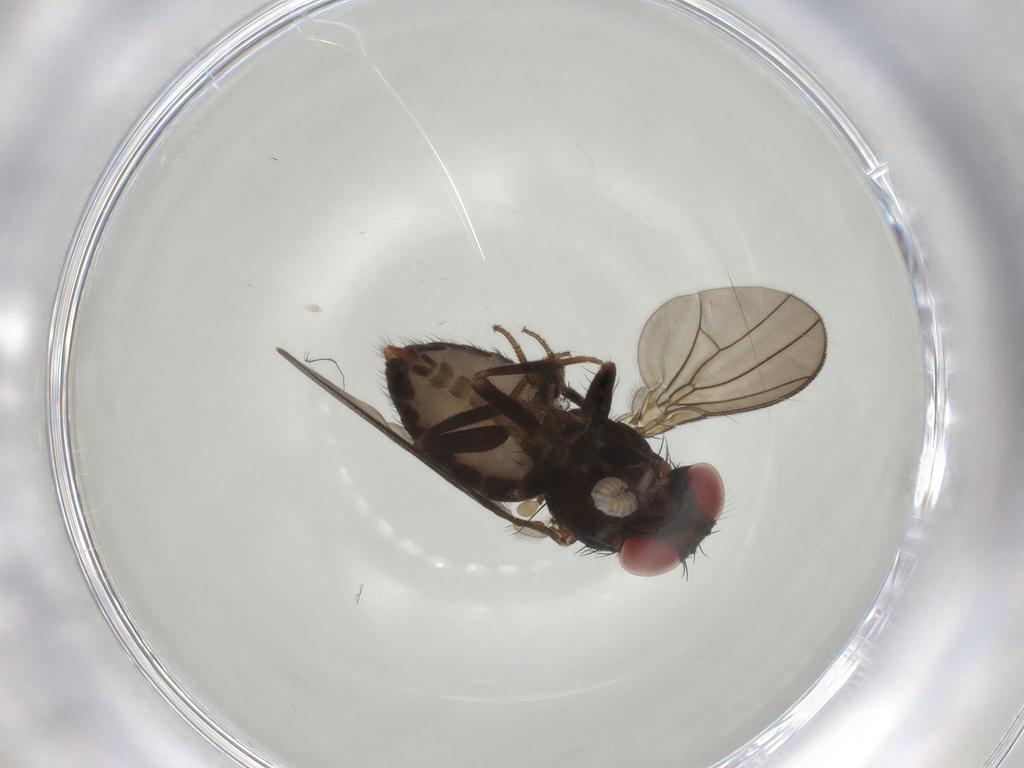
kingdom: Animalia
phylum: Arthropoda
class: Insecta
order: Diptera
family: Drosophilidae
